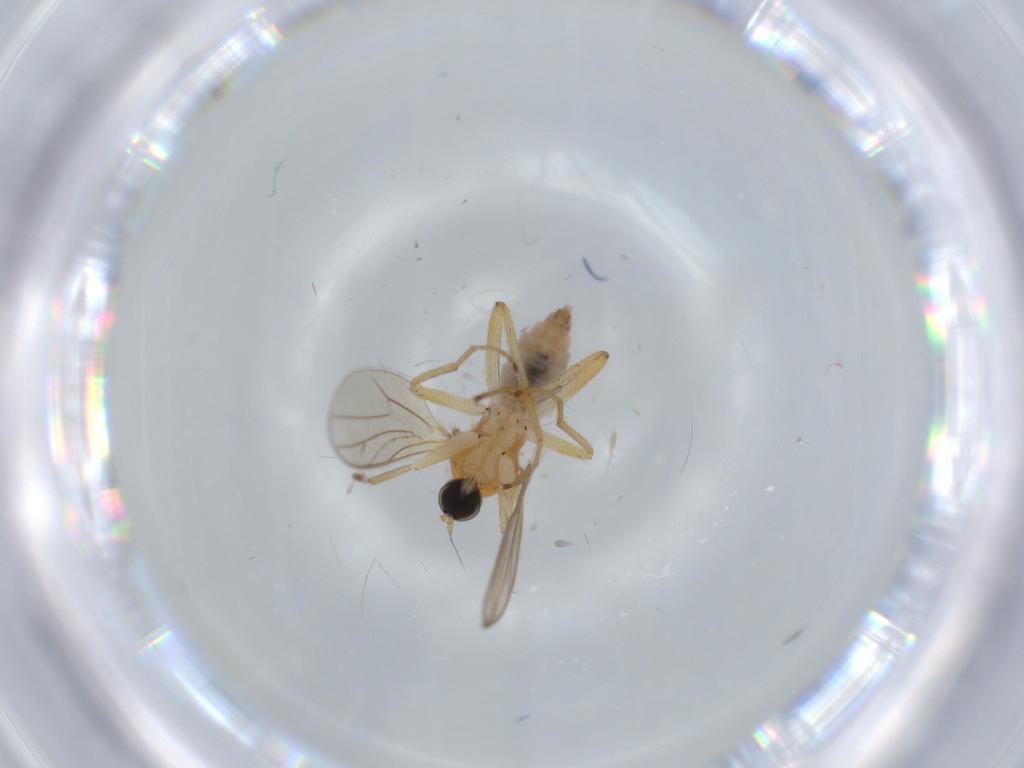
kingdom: Animalia
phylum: Arthropoda
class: Insecta
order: Diptera
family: Hybotidae
